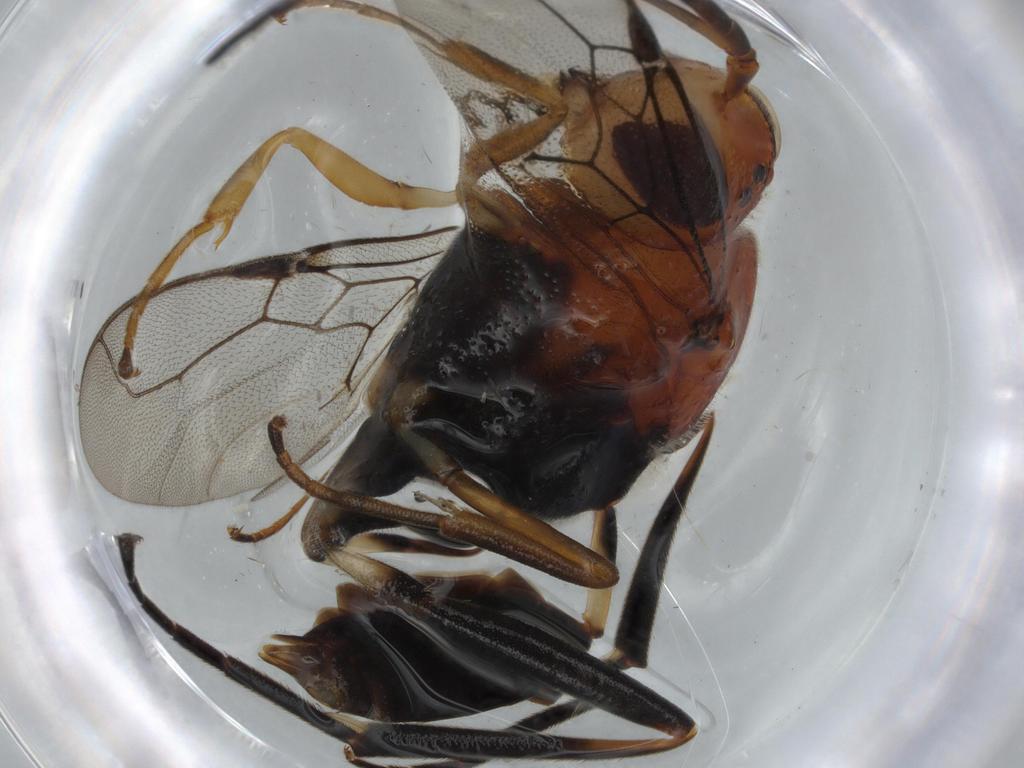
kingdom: Animalia
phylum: Arthropoda
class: Insecta
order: Hymenoptera
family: Evaniidae
